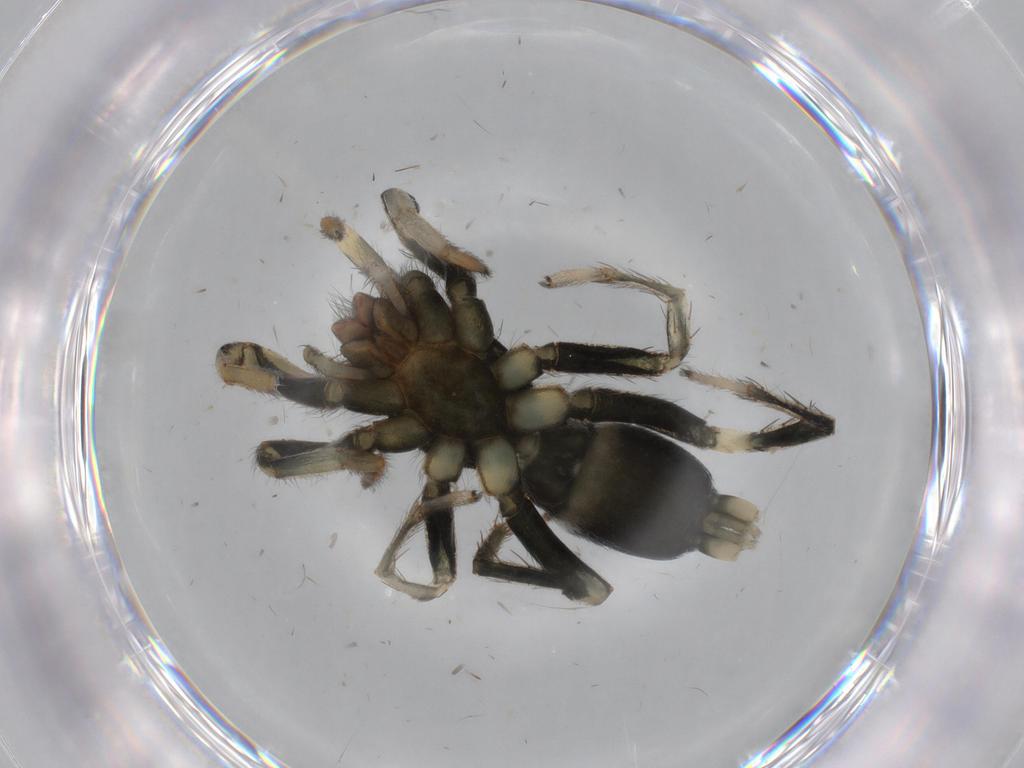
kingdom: Animalia
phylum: Arthropoda
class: Arachnida
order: Araneae
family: Gnaphosidae
